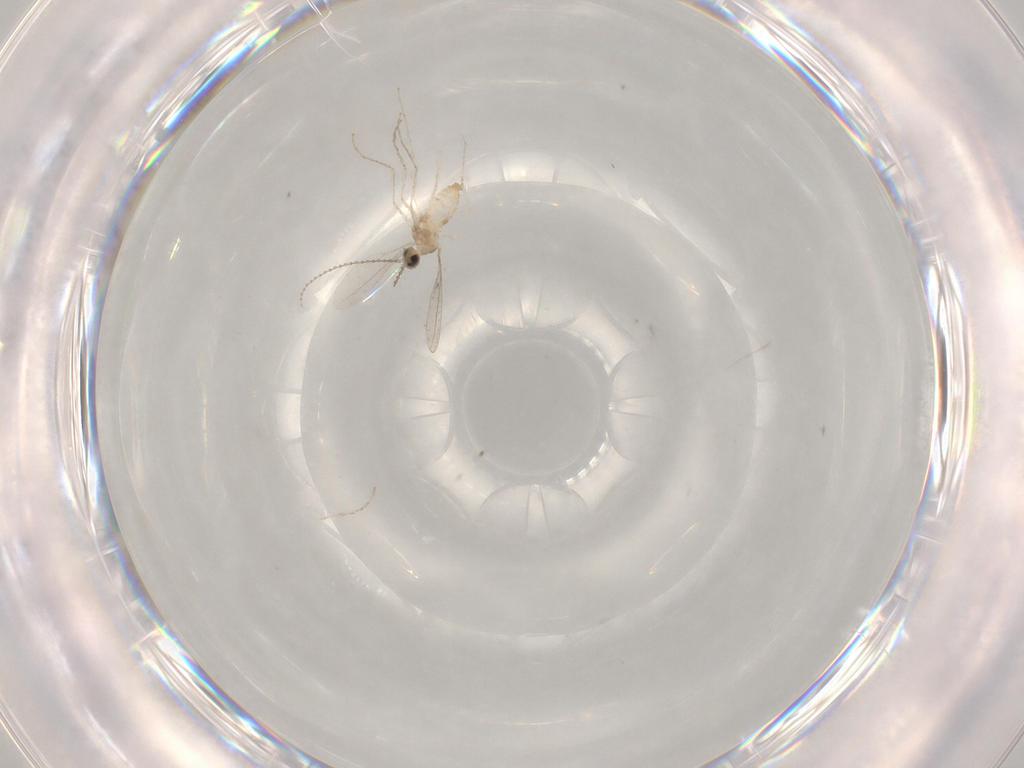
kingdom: Animalia
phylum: Arthropoda
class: Insecta
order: Diptera
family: Cecidomyiidae
